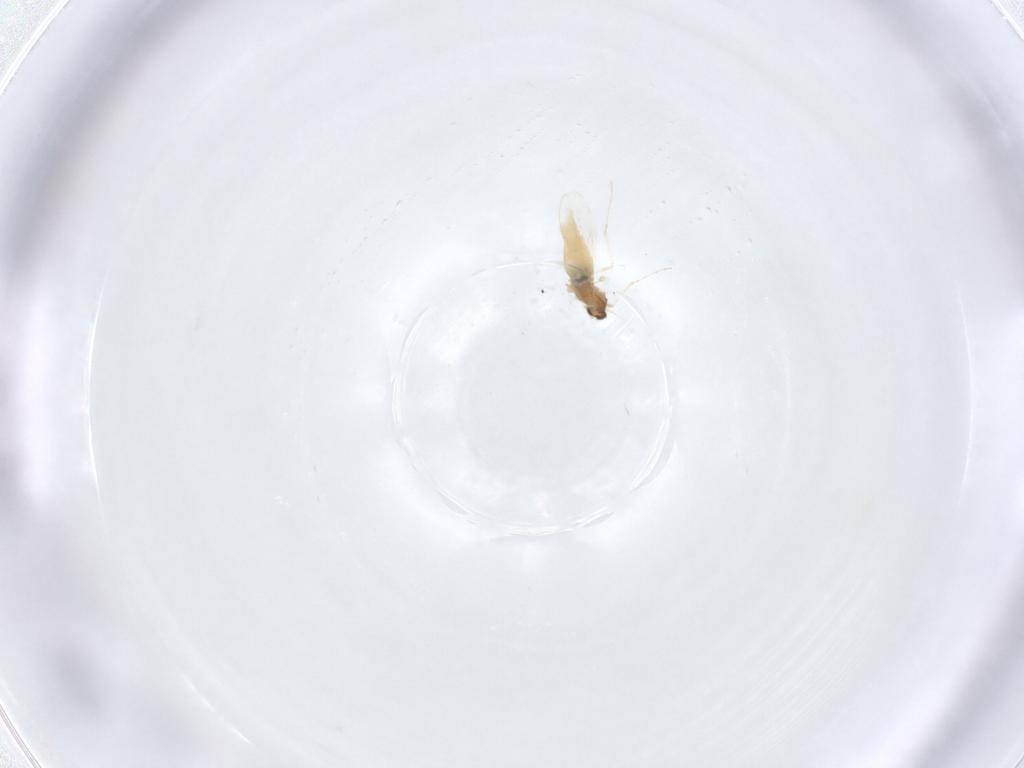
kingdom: Animalia
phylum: Arthropoda
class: Insecta
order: Diptera
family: Cecidomyiidae
